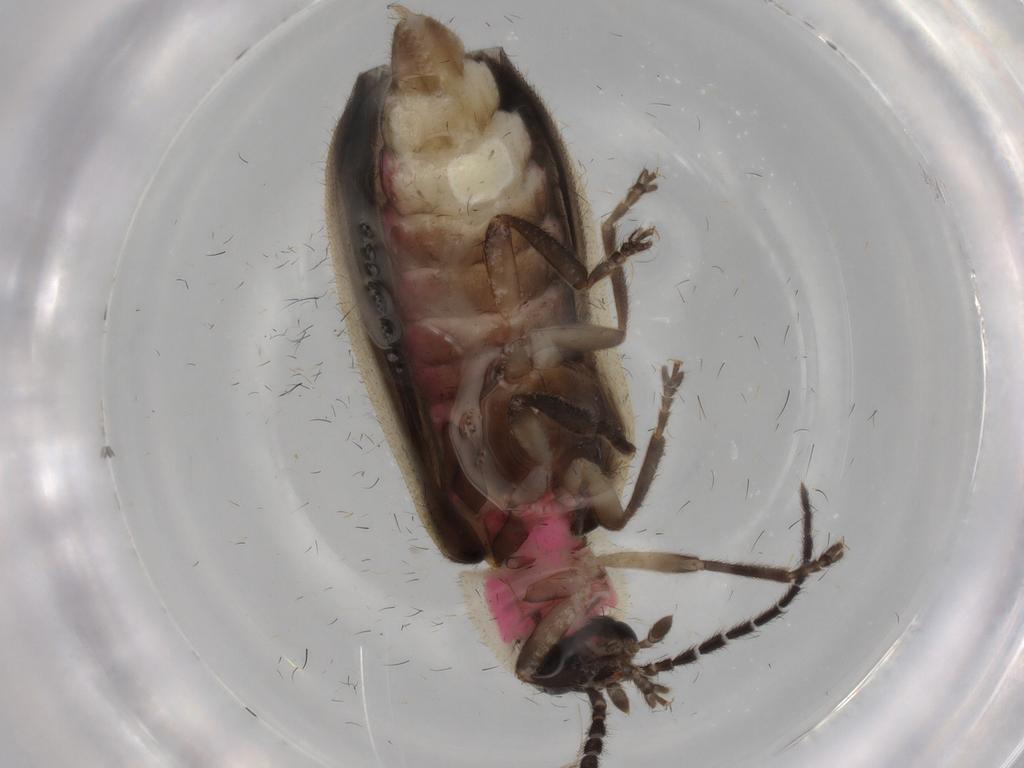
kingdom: Animalia
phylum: Arthropoda
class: Insecta
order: Coleoptera
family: Lampyridae
